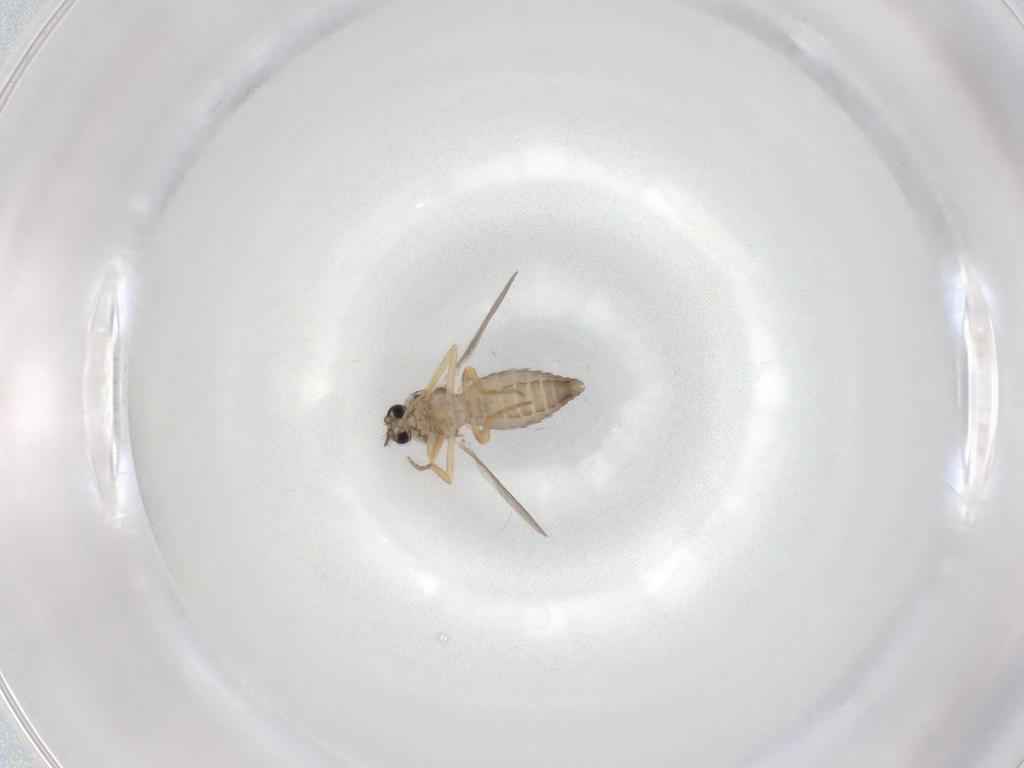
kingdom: Animalia
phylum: Arthropoda
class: Insecta
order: Diptera
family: Ceratopogonidae
